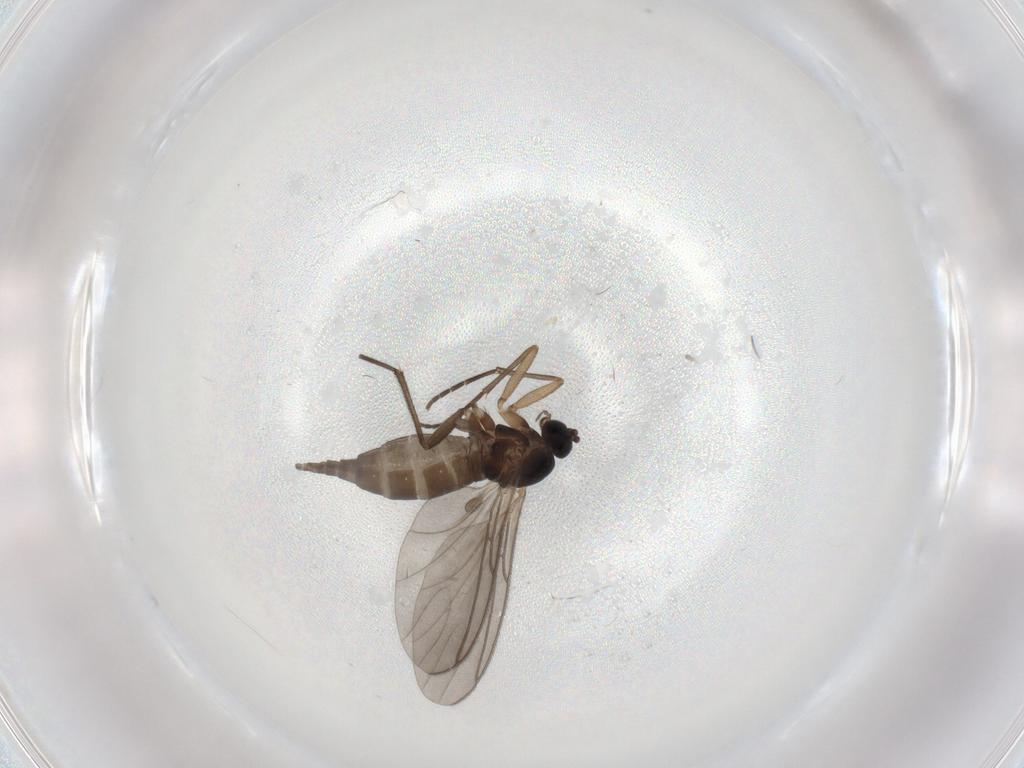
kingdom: Animalia
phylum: Arthropoda
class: Insecta
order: Diptera
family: Sciaridae
